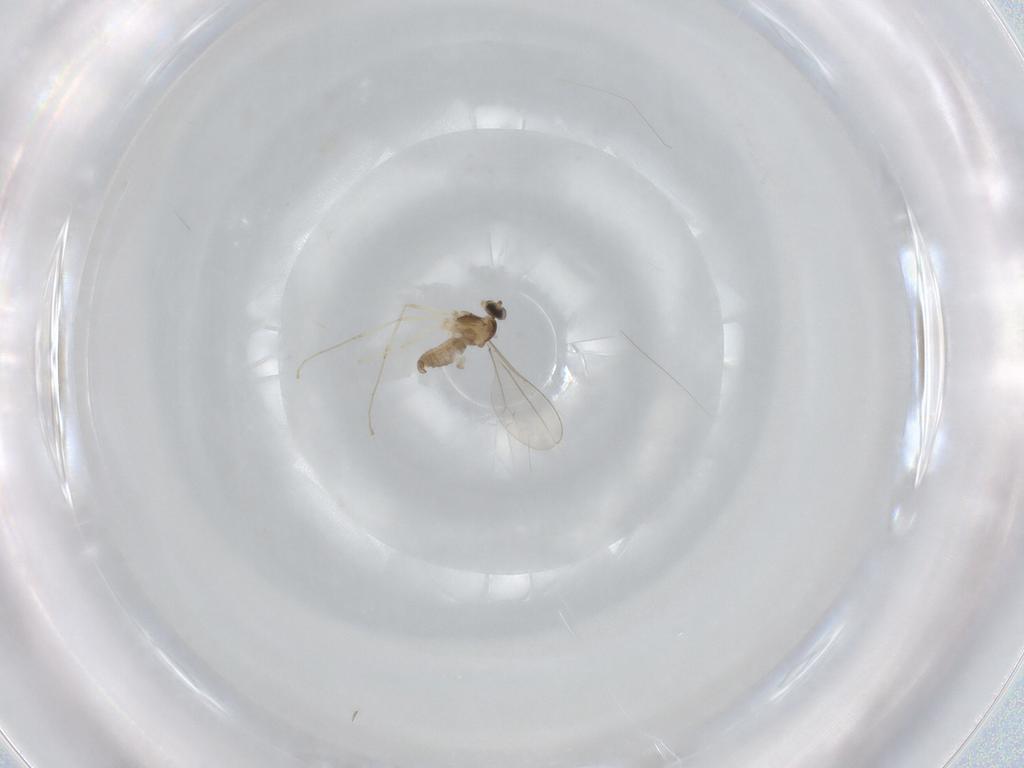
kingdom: Animalia
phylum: Arthropoda
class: Insecta
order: Diptera
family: Cecidomyiidae
